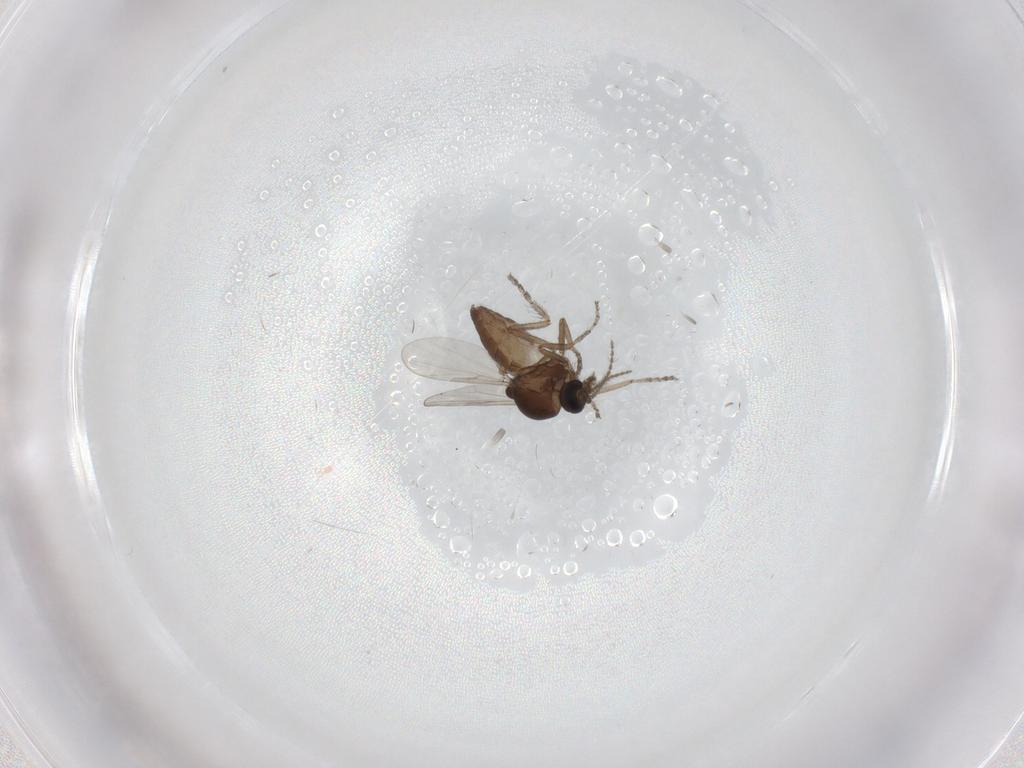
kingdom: Animalia
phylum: Arthropoda
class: Insecta
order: Diptera
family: Ceratopogonidae
